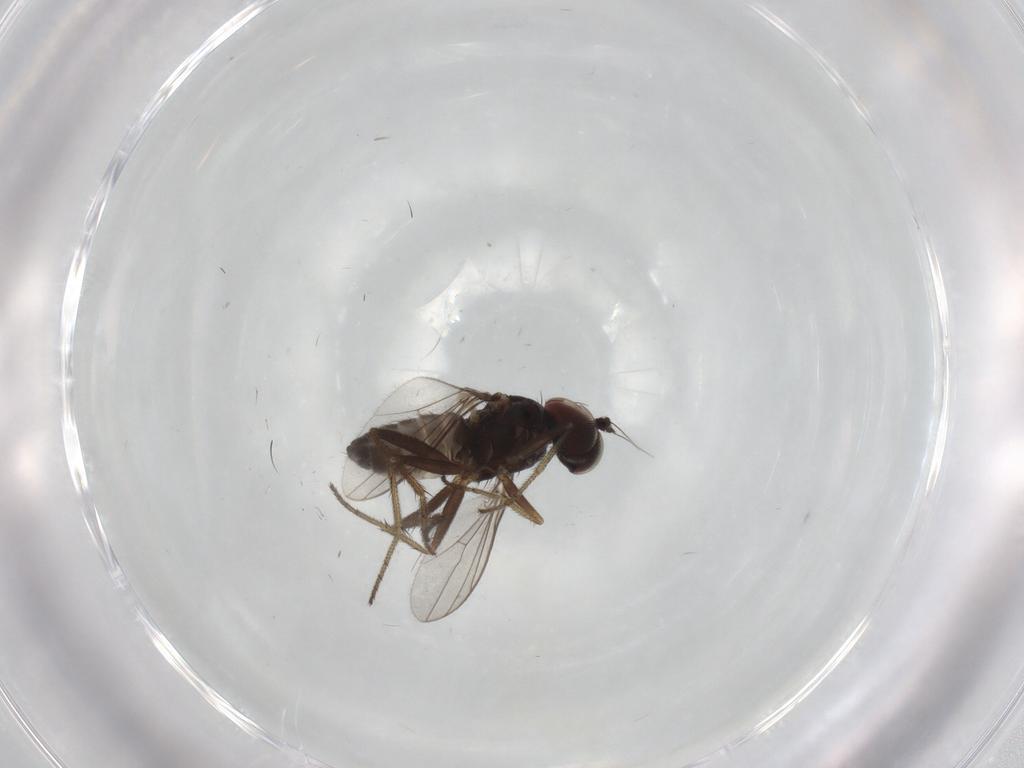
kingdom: Animalia
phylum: Arthropoda
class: Insecta
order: Diptera
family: Limoniidae
